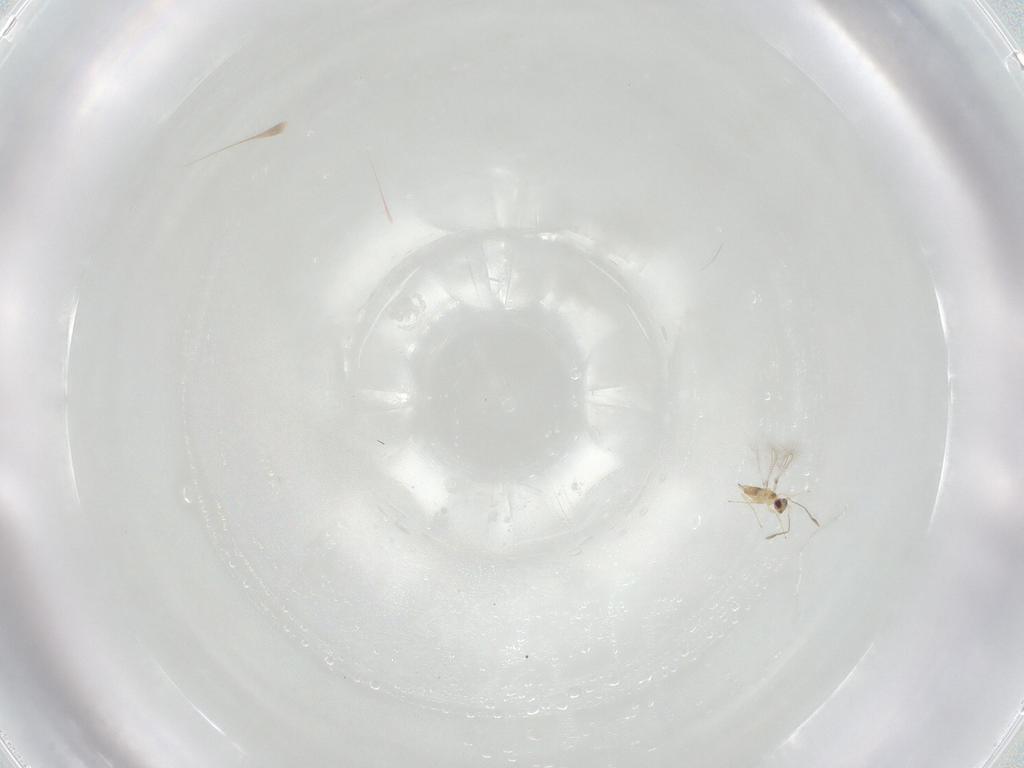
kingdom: Animalia
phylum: Arthropoda
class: Insecta
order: Hymenoptera
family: Mymaridae
